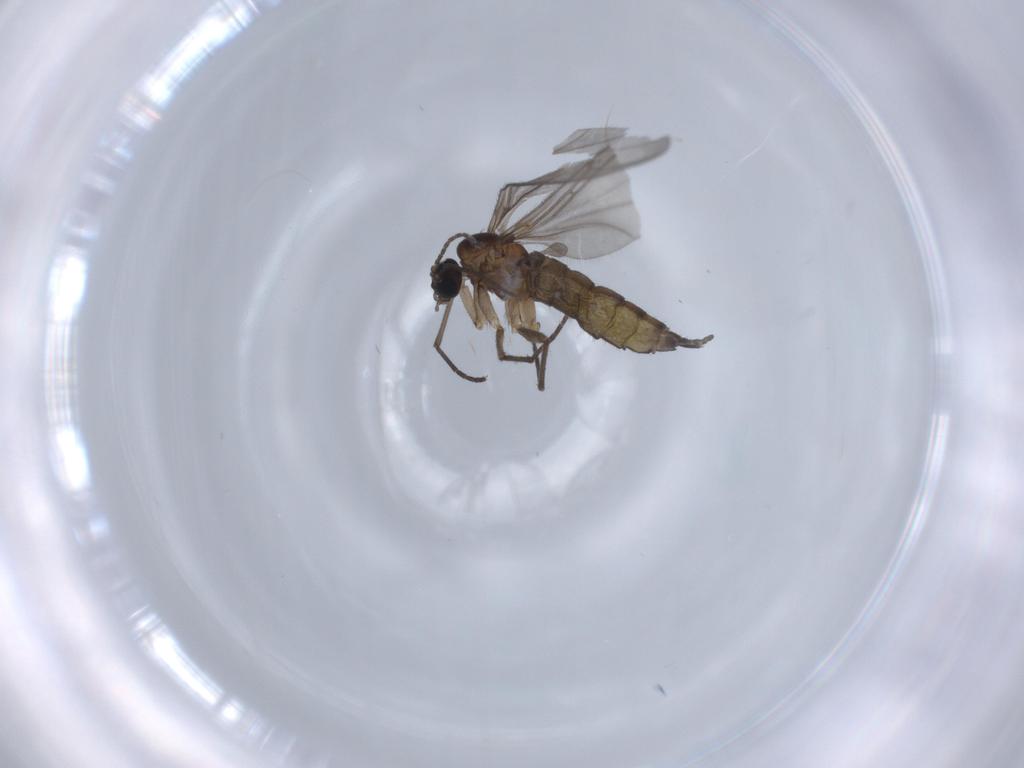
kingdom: Animalia
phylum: Arthropoda
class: Insecta
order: Diptera
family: Sciaridae
